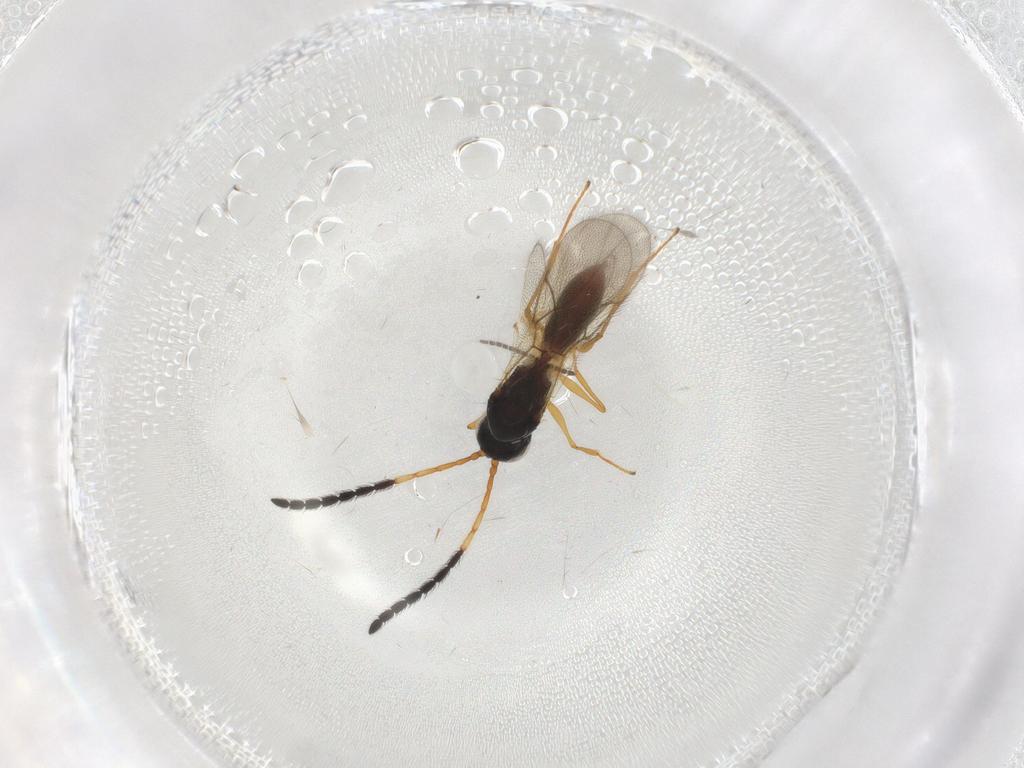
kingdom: Animalia
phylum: Arthropoda
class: Insecta
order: Hymenoptera
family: Figitidae
